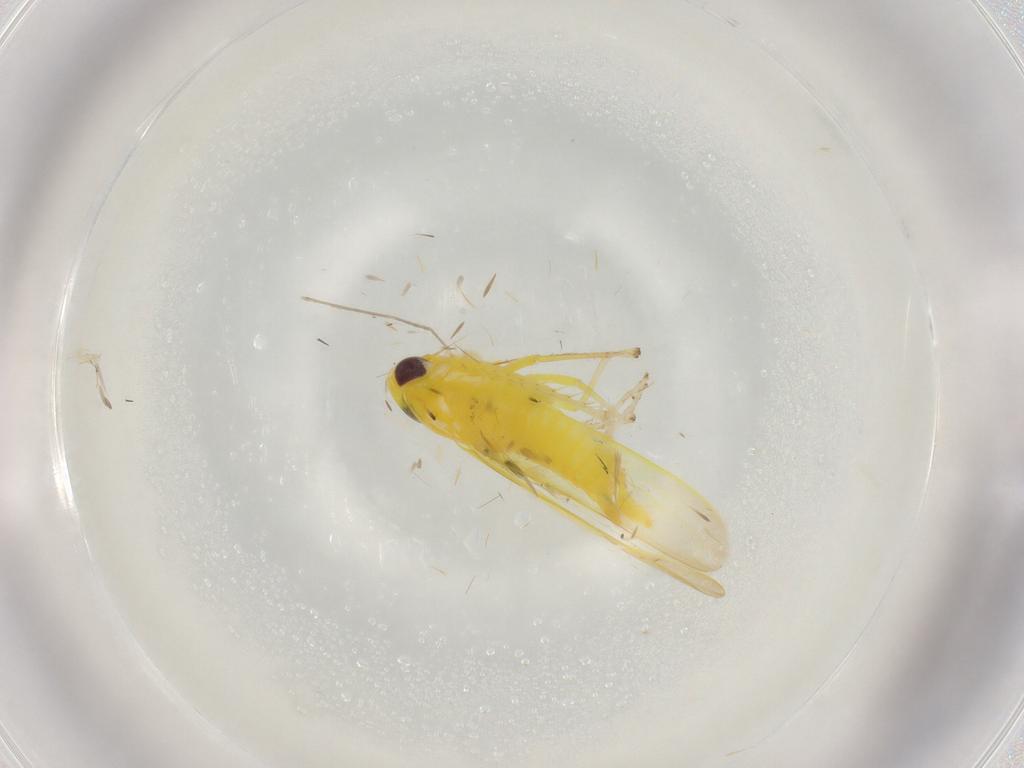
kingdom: Animalia
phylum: Arthropoda
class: Insecta
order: Hemiptera
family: Cicadellidae
